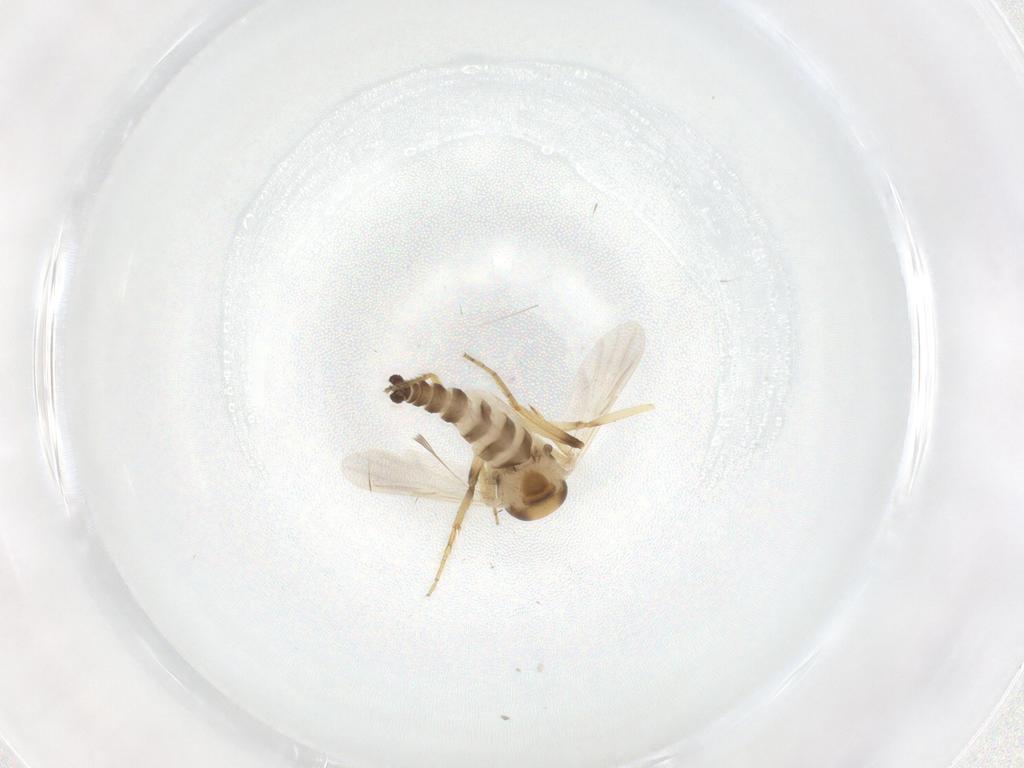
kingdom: Animalia
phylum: Arthropoda
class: Insecta
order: Diptera
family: Ceratopogonidae
